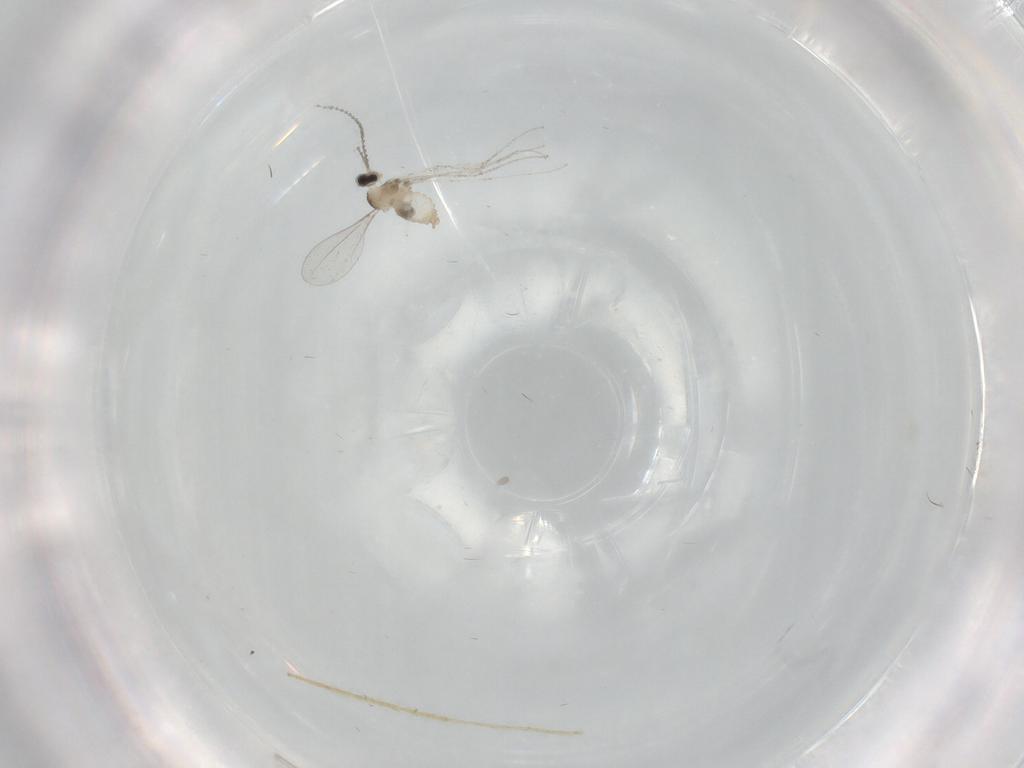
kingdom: Animalia
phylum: Arthropoda
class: Insecta
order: Diptera
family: Cecidomyiidae
